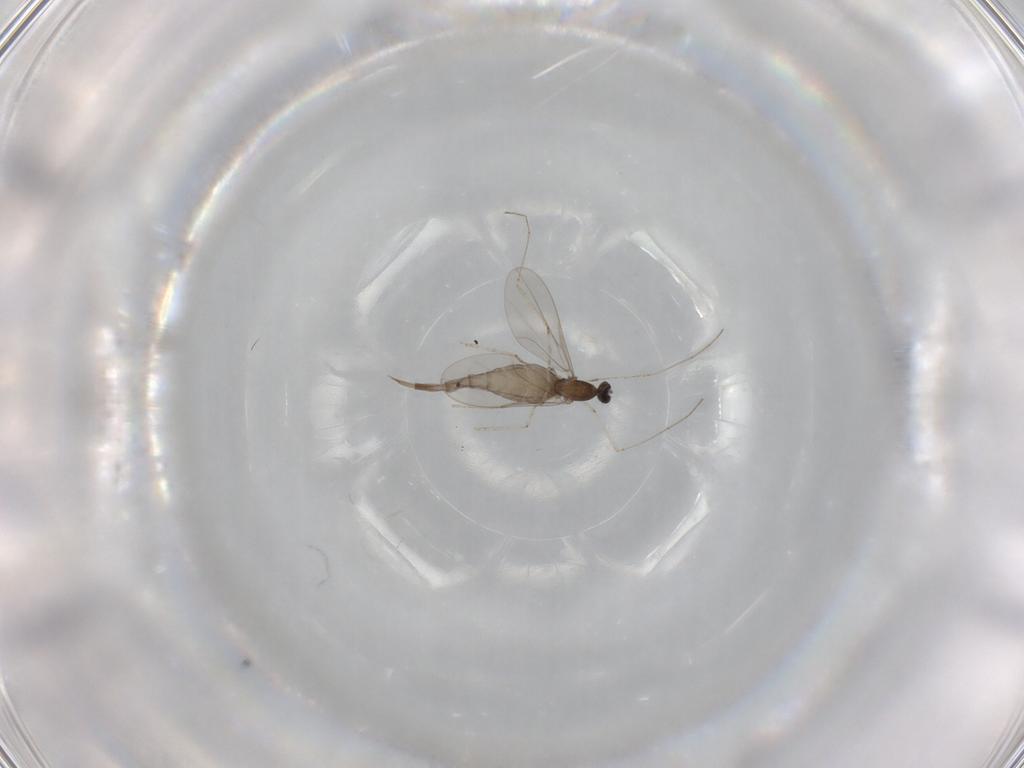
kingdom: Animalia
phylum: Arthropoda
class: Insecta
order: Diptera
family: Cecidomyiidae
